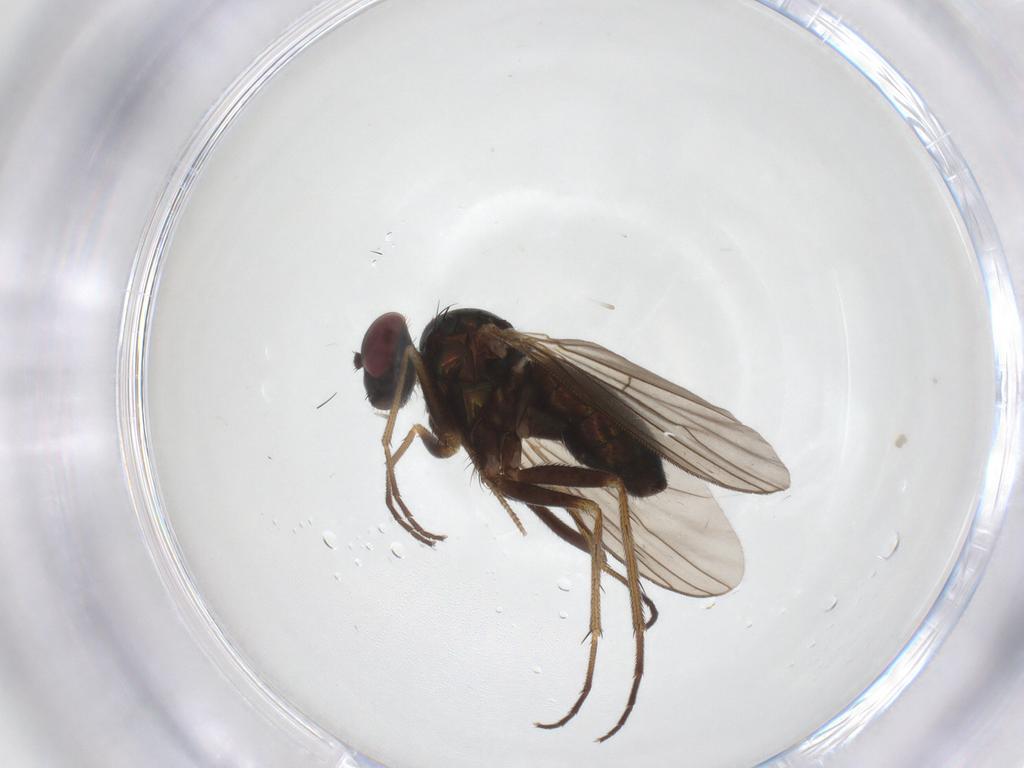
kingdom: Animalia
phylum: Arthropoda
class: Insecta
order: Diptera
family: Dolichopodidae
